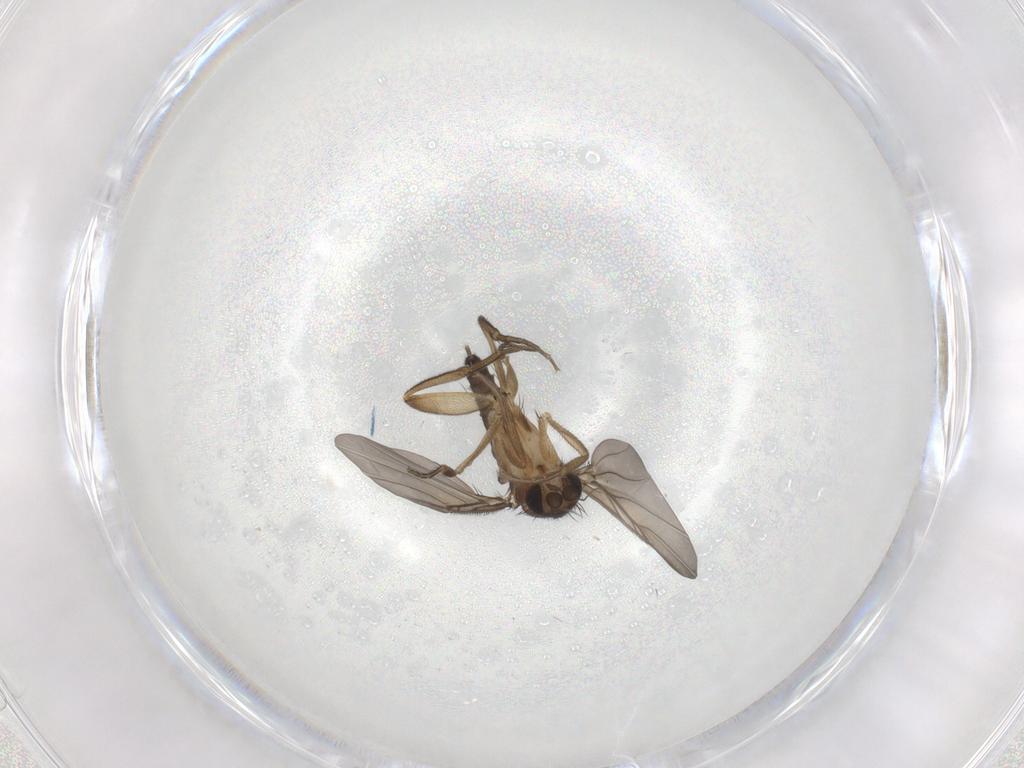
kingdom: Animalia
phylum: Arthropoda
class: Insecta
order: Diptera
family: Phoridae
